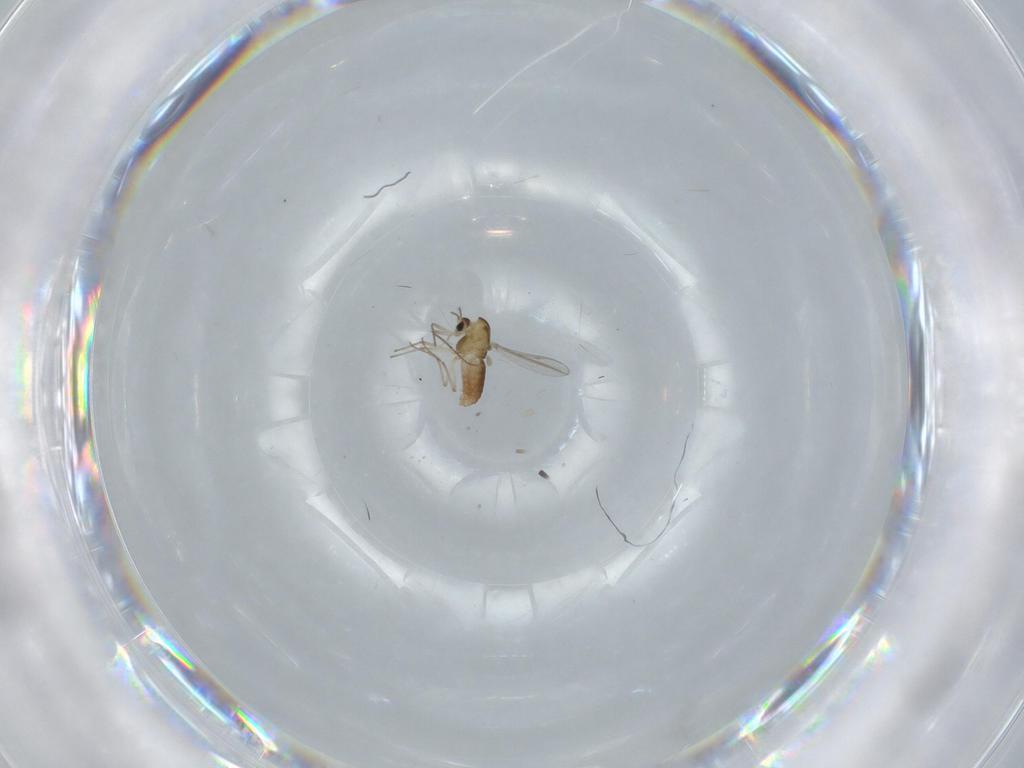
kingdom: Animalia
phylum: Arthropoda
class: Insecta
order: Diptera
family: Chironomidae
